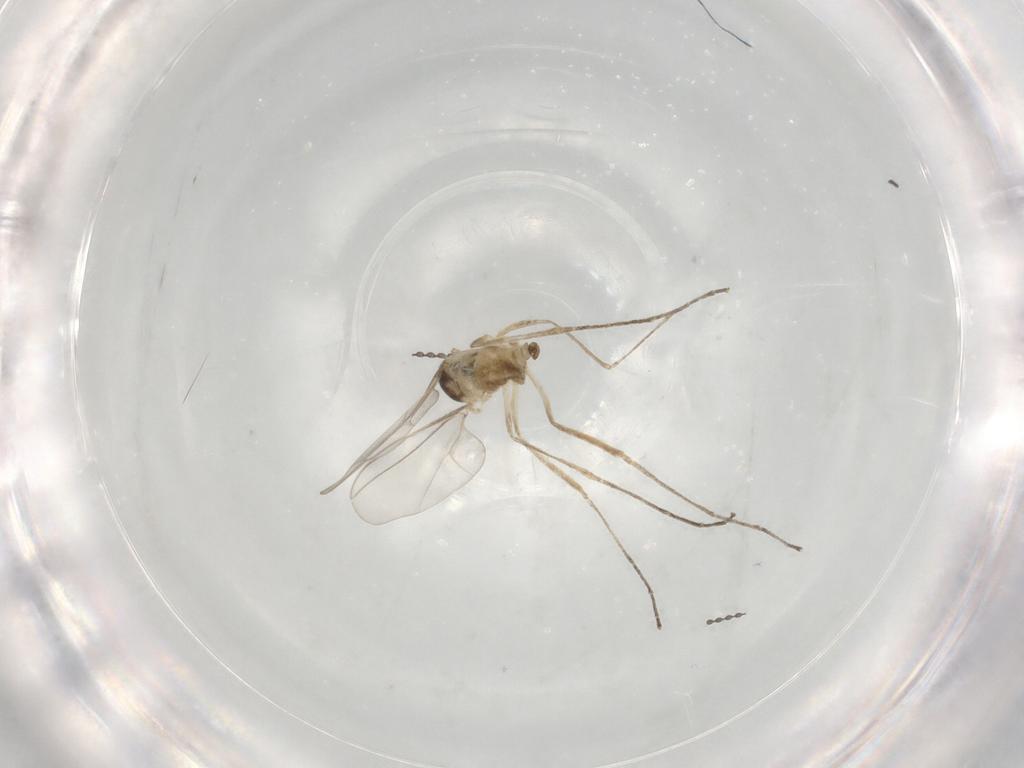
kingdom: Animalia
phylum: Arthropoda
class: Insecta
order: Diptera
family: Cecidomyiidae
